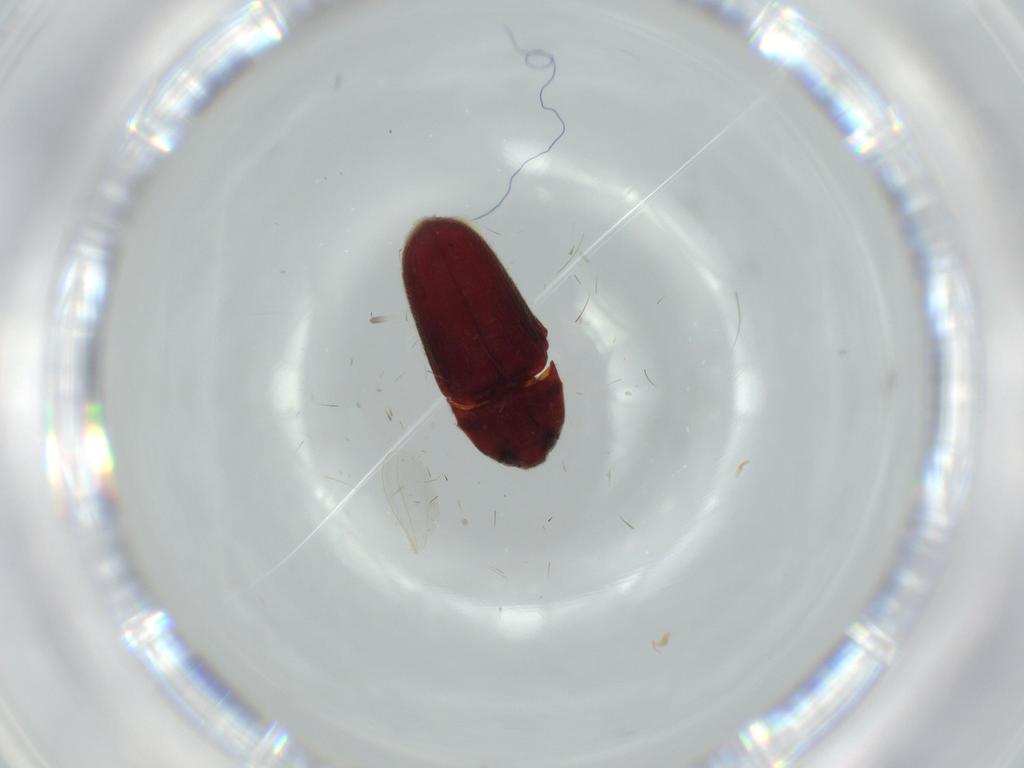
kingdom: Animalia
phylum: Arthropoda
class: Insecta
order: Coleoptera
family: Throscidae
